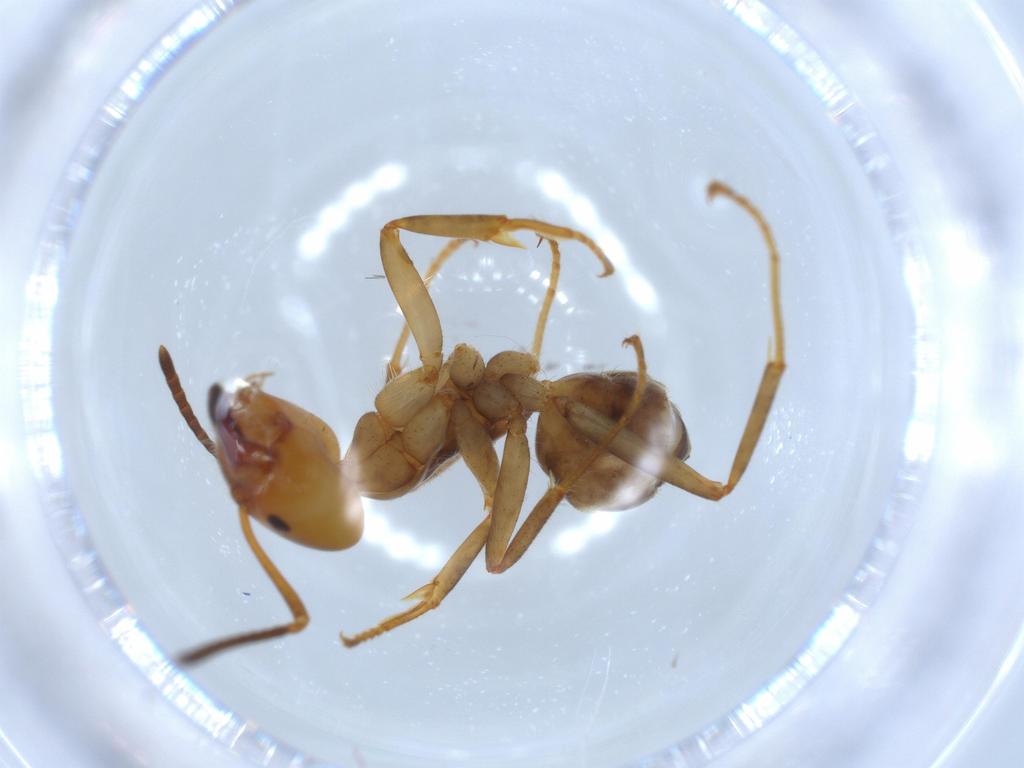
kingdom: Animalia
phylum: Arthropoda
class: Insecta
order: Hymenoptera
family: Formicidae
